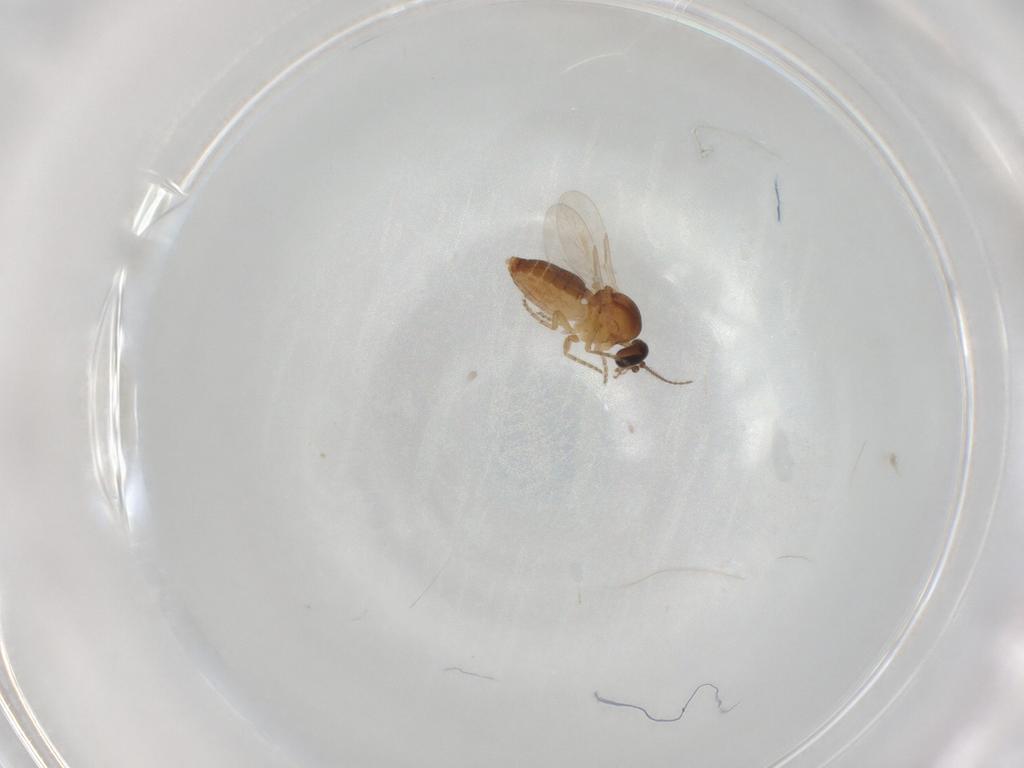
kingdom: Animalia
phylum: Arthropoda
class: Insecta
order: Diptera
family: Ceratopogonidae
